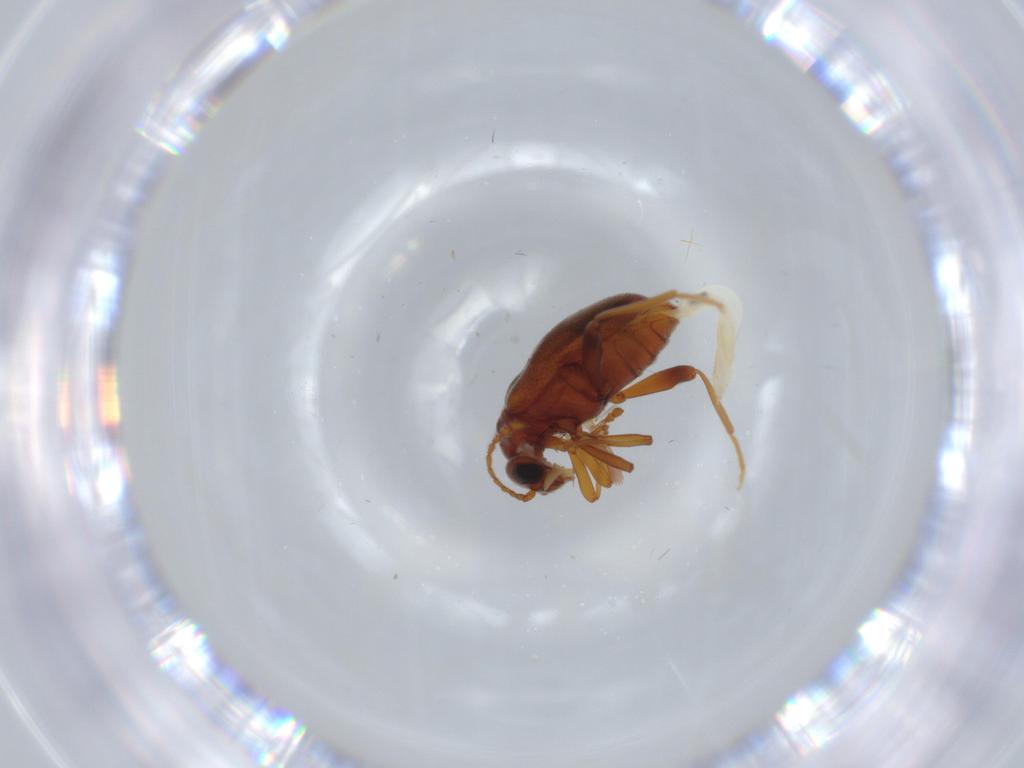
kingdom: Animalia
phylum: Arthropoda
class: Insecta
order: Coleoptera
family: Aderidae
